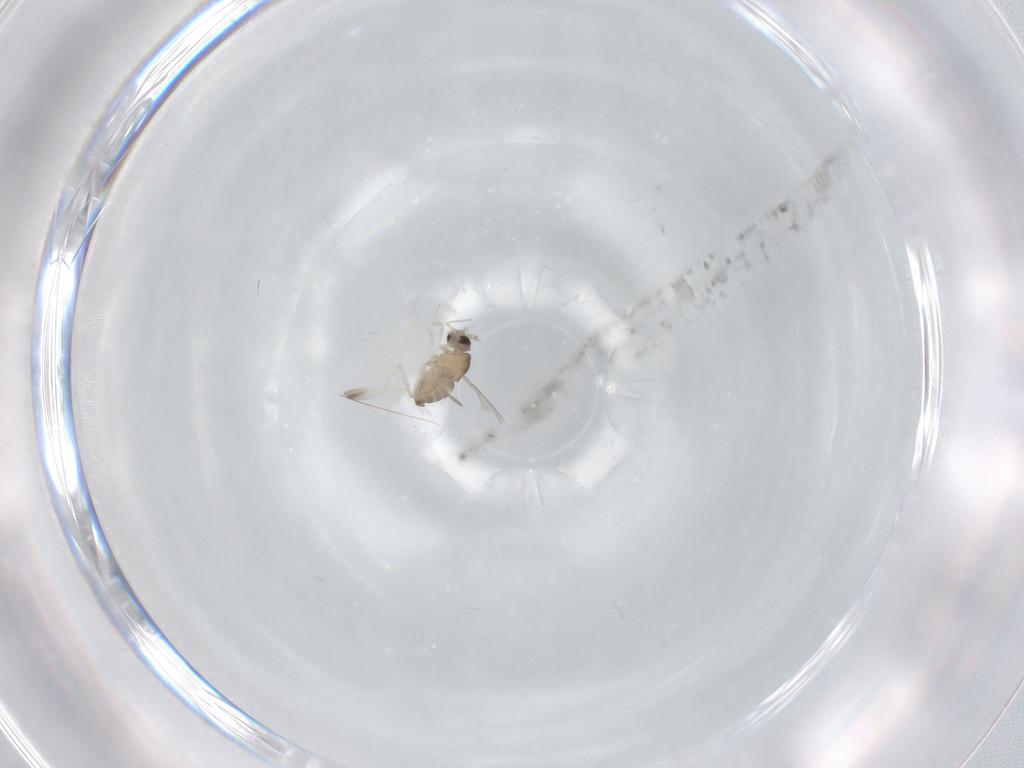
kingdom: Animalia
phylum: Arthropoda
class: Insecta
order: Diptera
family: Cecidomyiidae
